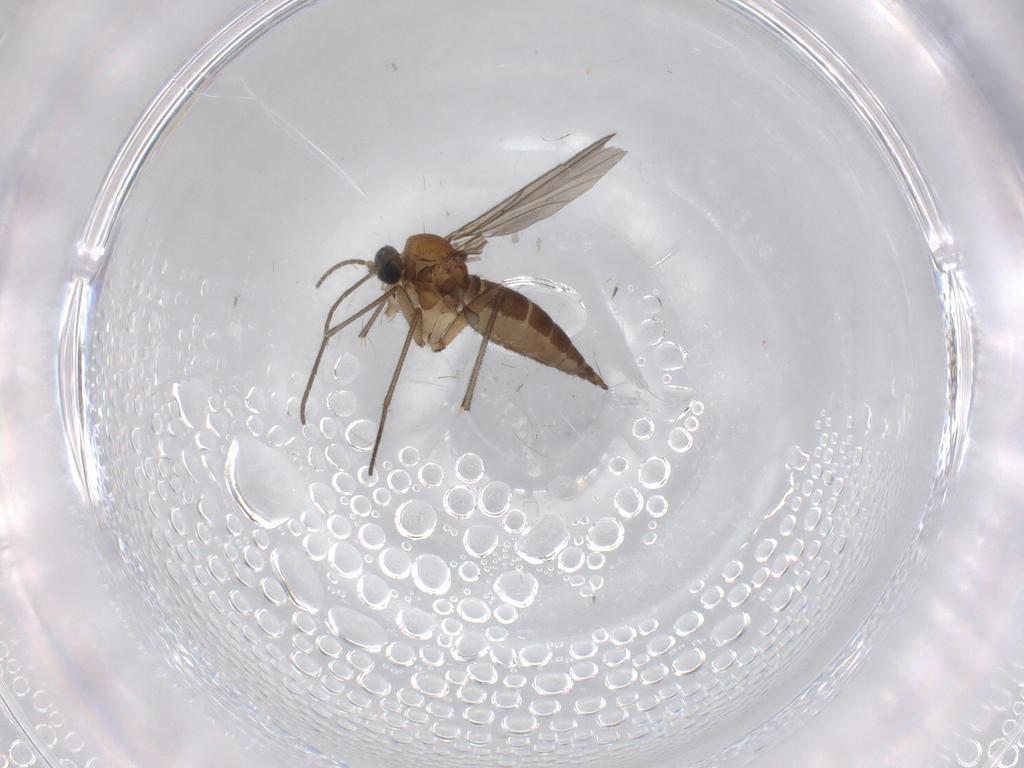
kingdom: Animalia
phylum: Arthropoda
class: Insecta
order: Diptera
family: Sciaridae
